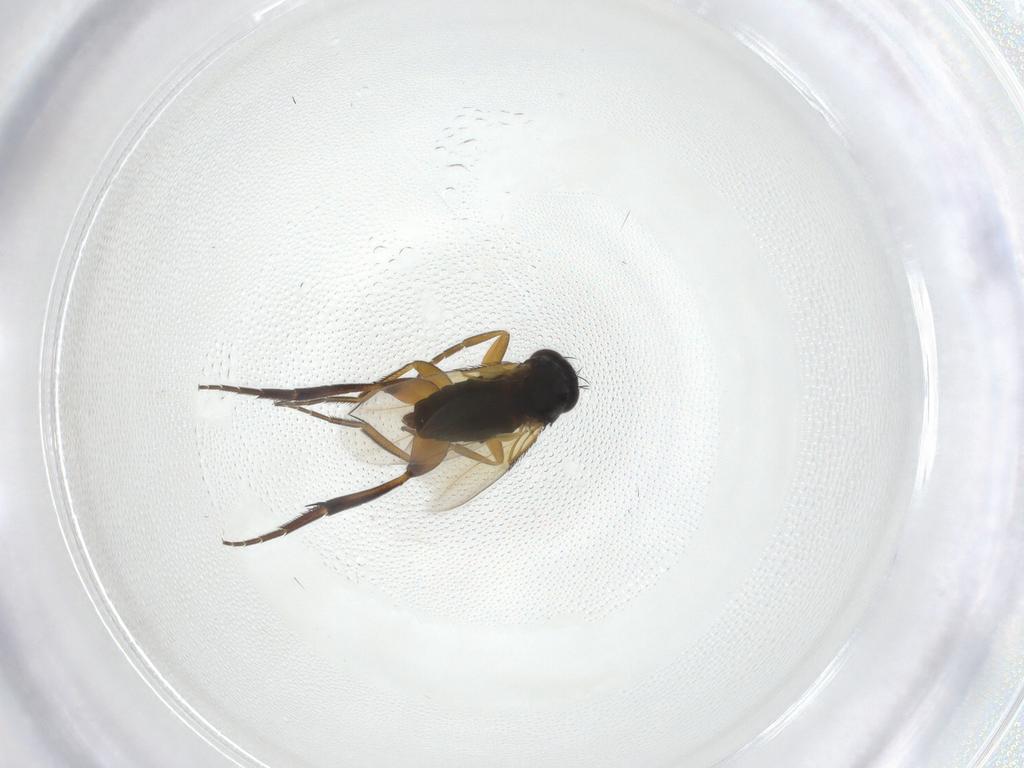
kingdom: Animalia
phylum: Arthropoda
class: Insecta
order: Diptera
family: Phoridae
